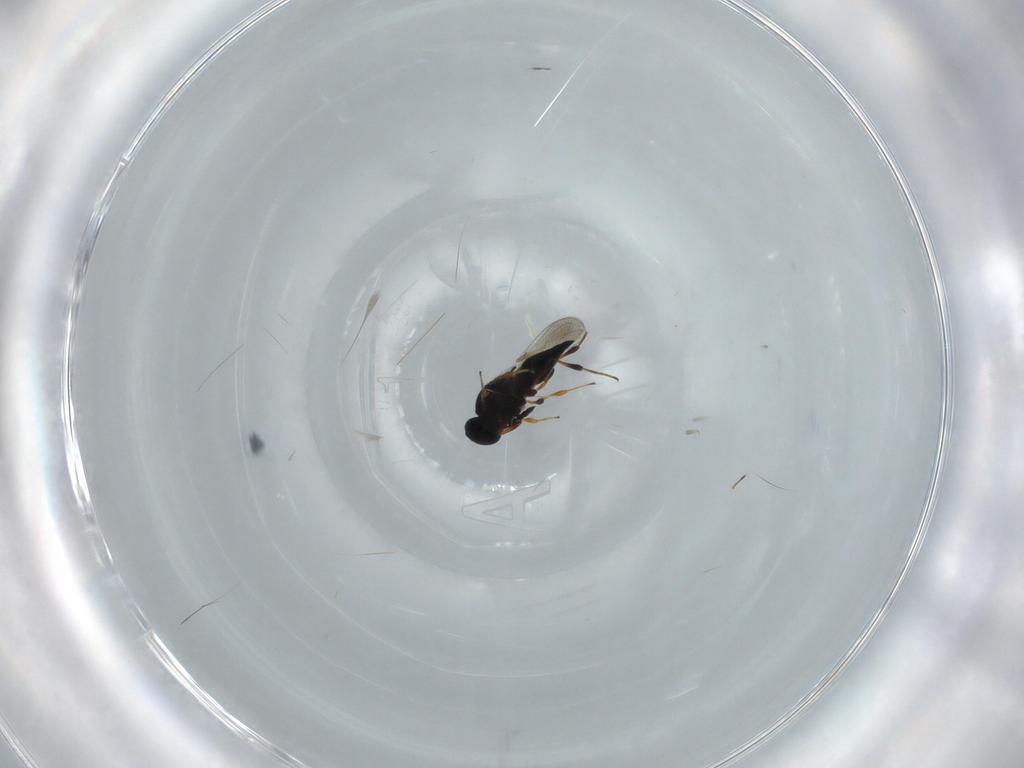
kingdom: Animalia
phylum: Arthropoda
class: Insecta
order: Hymenoptera
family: Platygastridae
